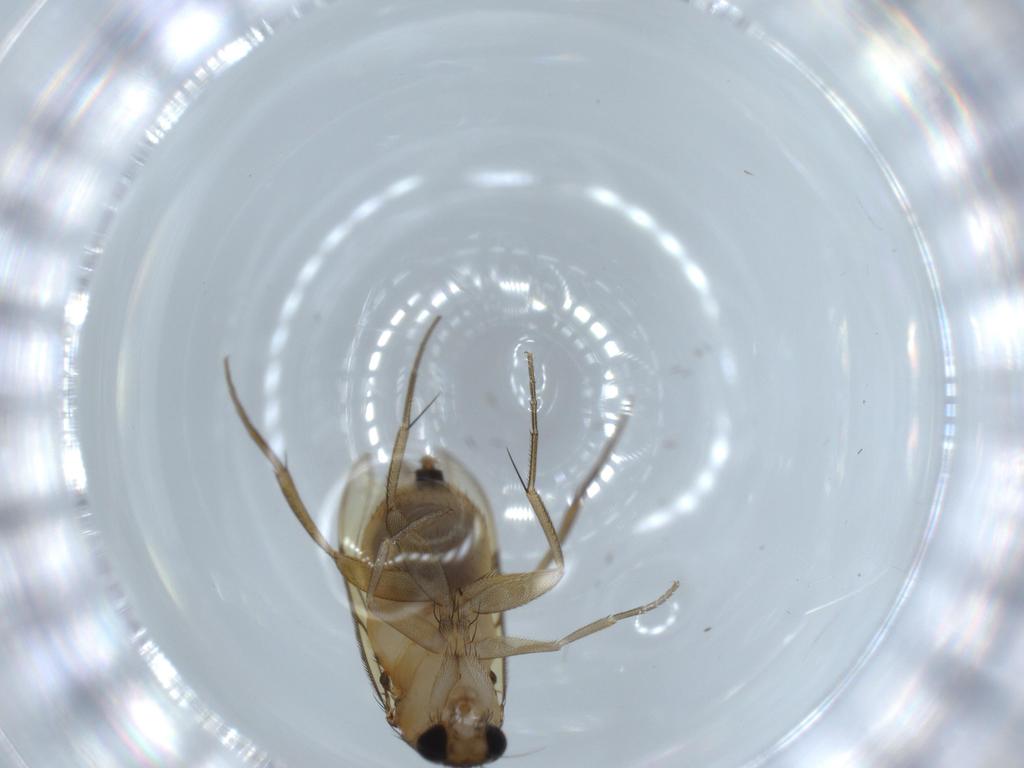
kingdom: Animalia
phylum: Arthropoda
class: Insecta
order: Diptera
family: Phoridae
